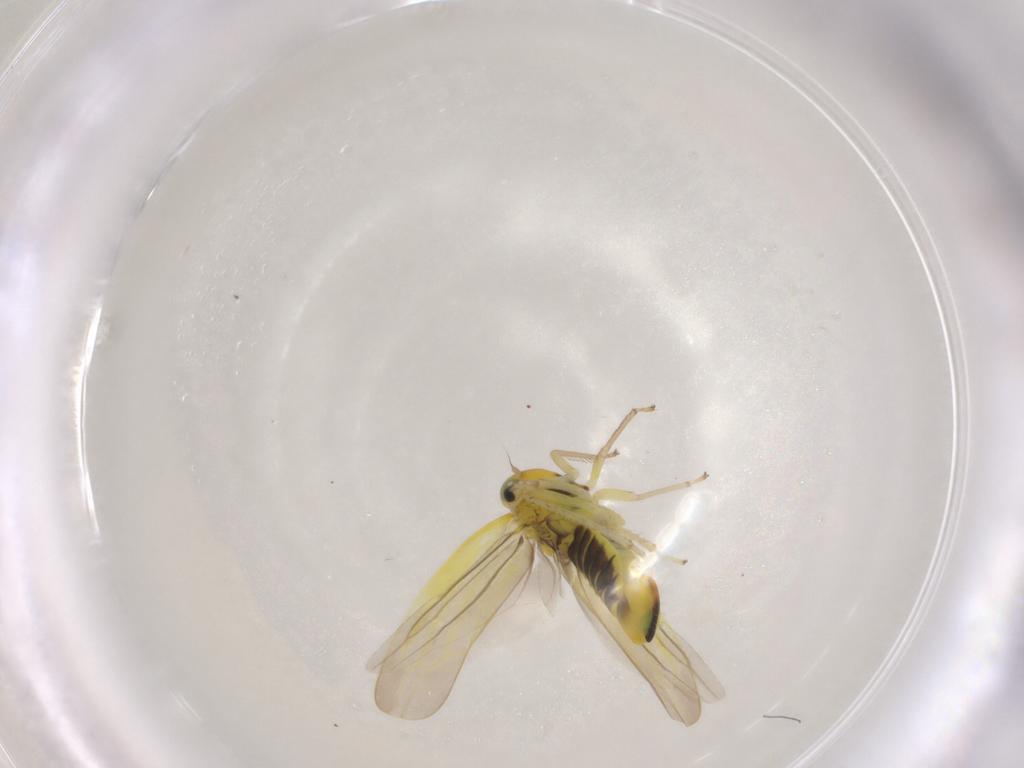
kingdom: Animalia
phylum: Arthropoda
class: Insecta
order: Hemiptera
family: Cicadellidae
